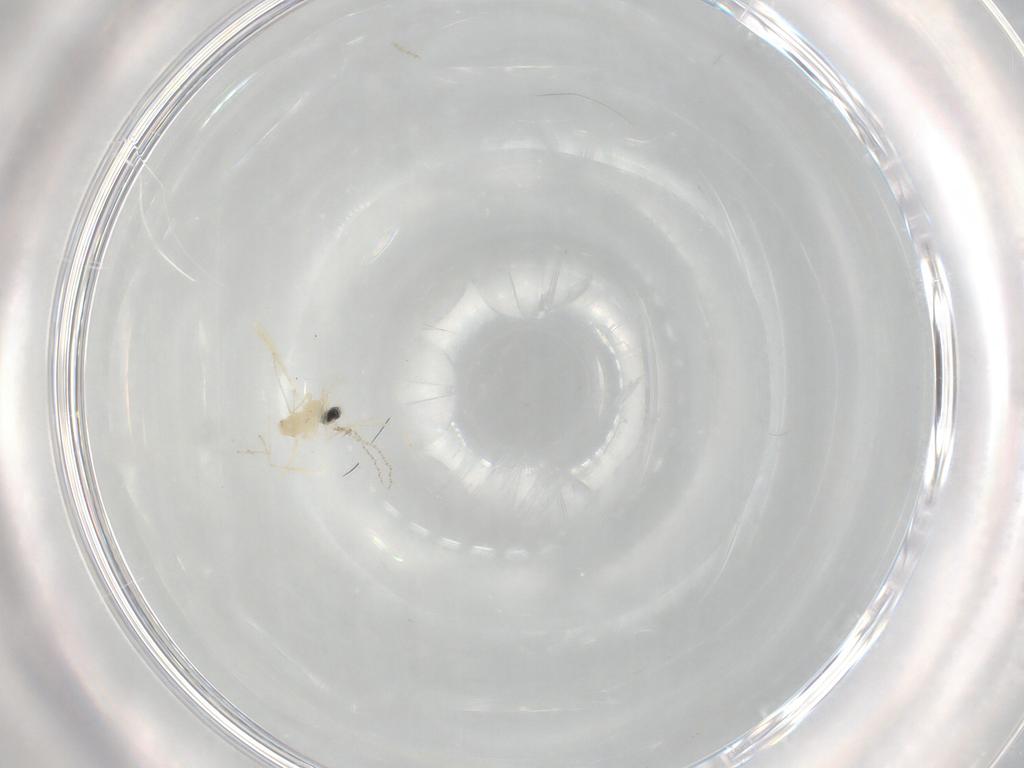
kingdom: Animalia
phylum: Arthropoda
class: Insecta
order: Diptera
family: Cecidomyiidae
